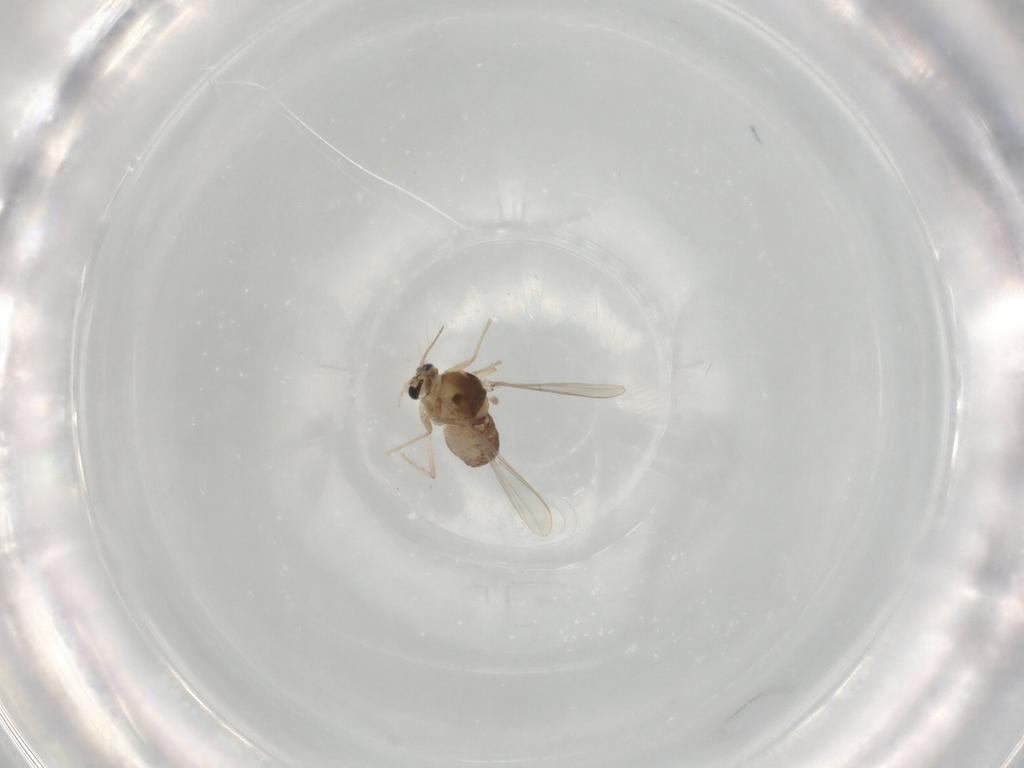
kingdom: Animalia
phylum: Arthropoda
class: Insecta
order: Diptera
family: Chironomidae
